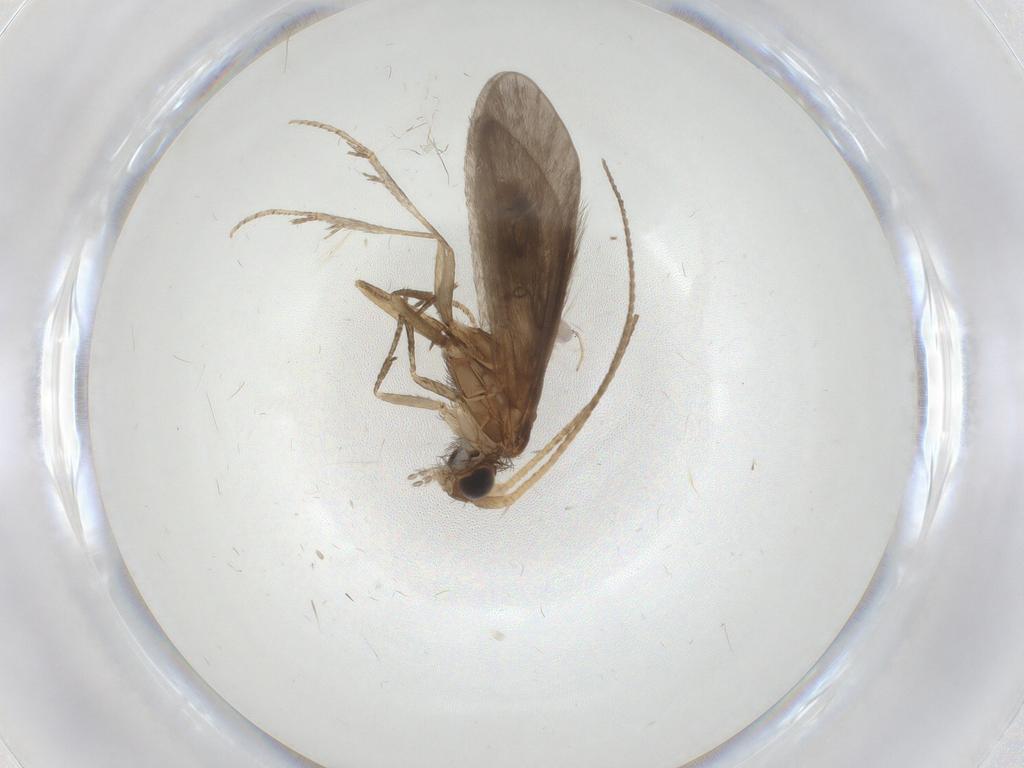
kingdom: Animalia
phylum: Arthropoda
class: Insecta
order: Trichoptera
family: Helicopsychidae
